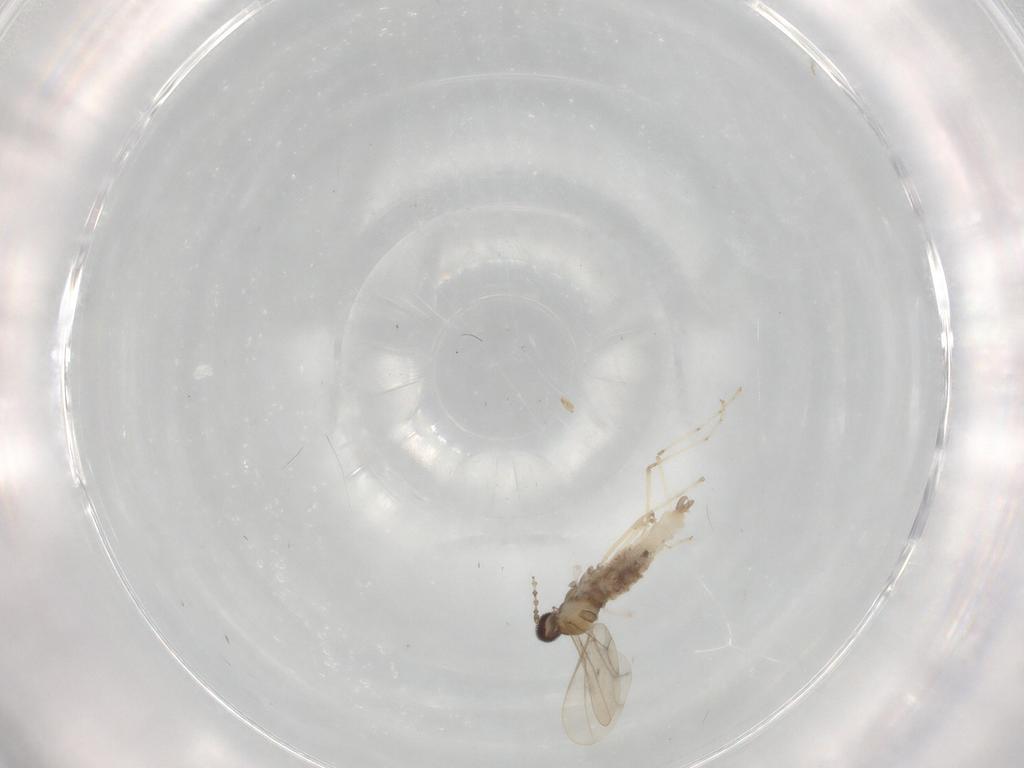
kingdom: Animalia
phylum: Arthropoda
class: Insecta
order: Diptera
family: Cecidomyiidae
